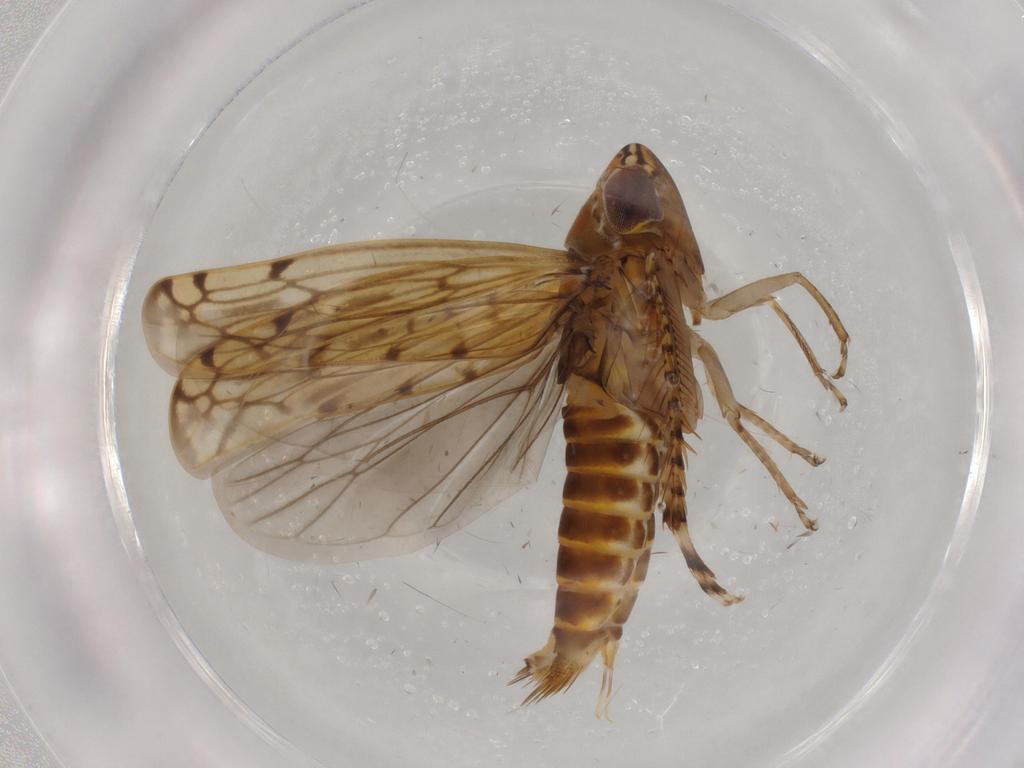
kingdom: Animalia
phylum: Arthropoda
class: Insecta
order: Hemiptera
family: Cicadellidae
